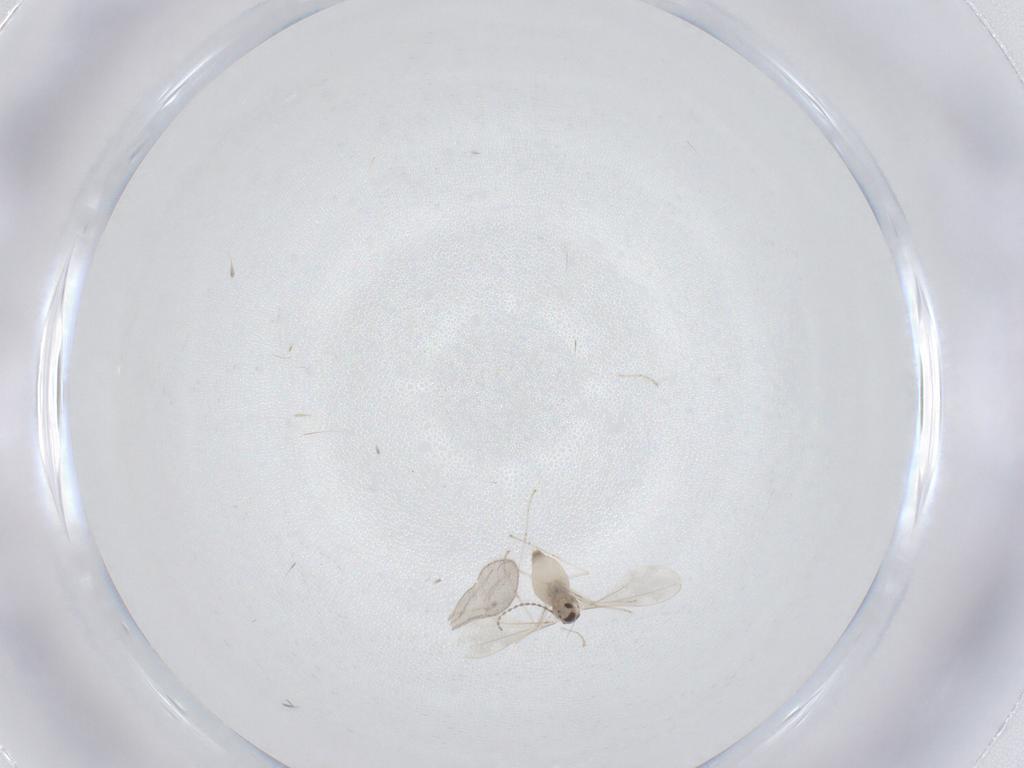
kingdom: Animalia
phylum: Arthropoda
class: Insecta
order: Diptera
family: Cecidomyiidae
